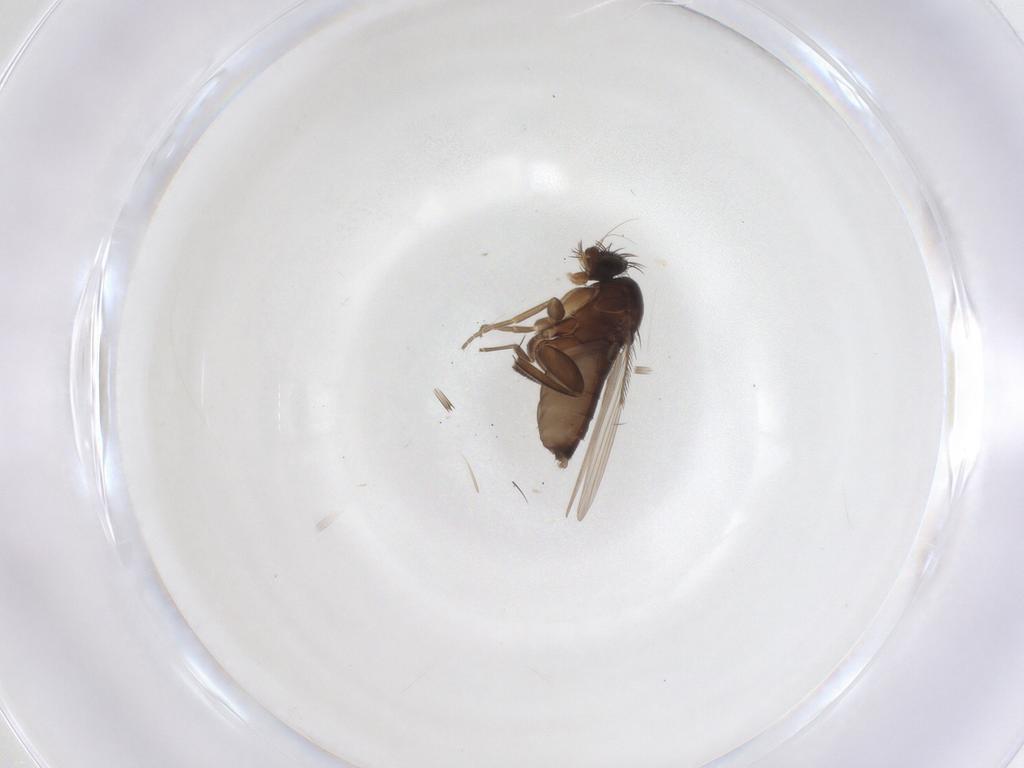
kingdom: Animalia
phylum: Arthropoda
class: Insecta
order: Diptera
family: Phoridae
